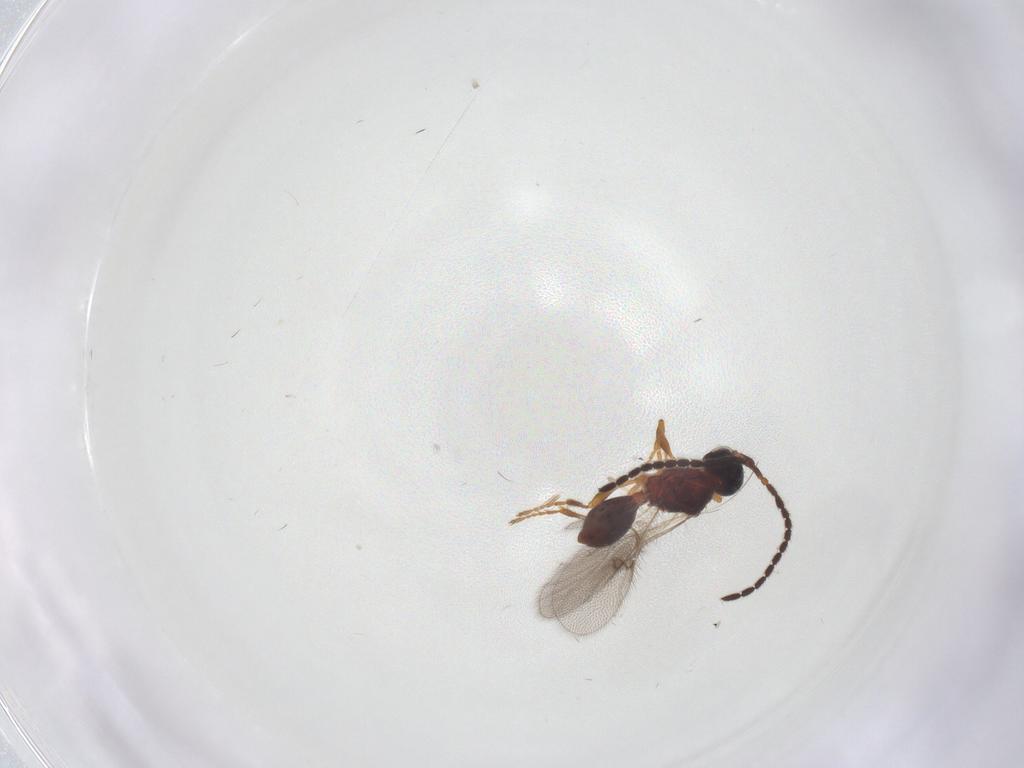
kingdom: Animalia
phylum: Arthropoda
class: Insecta
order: Hymenoptera
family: Diapriidae
